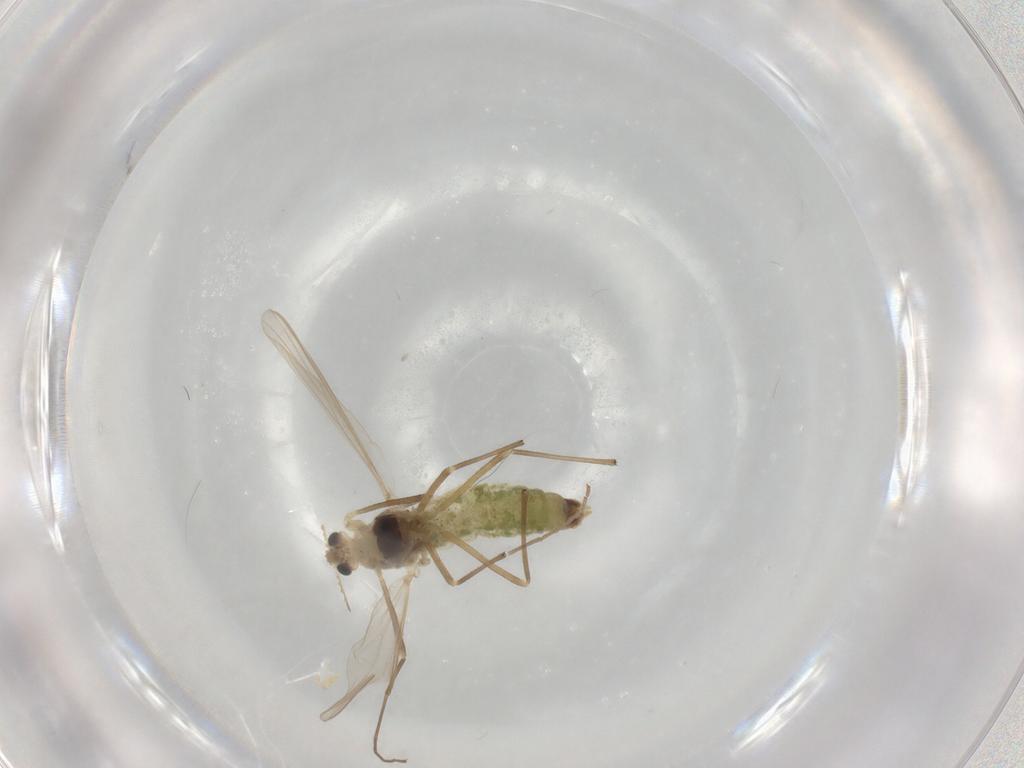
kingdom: Animalia
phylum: Arthropoda
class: Insecta
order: Diptera
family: Chironomidae
